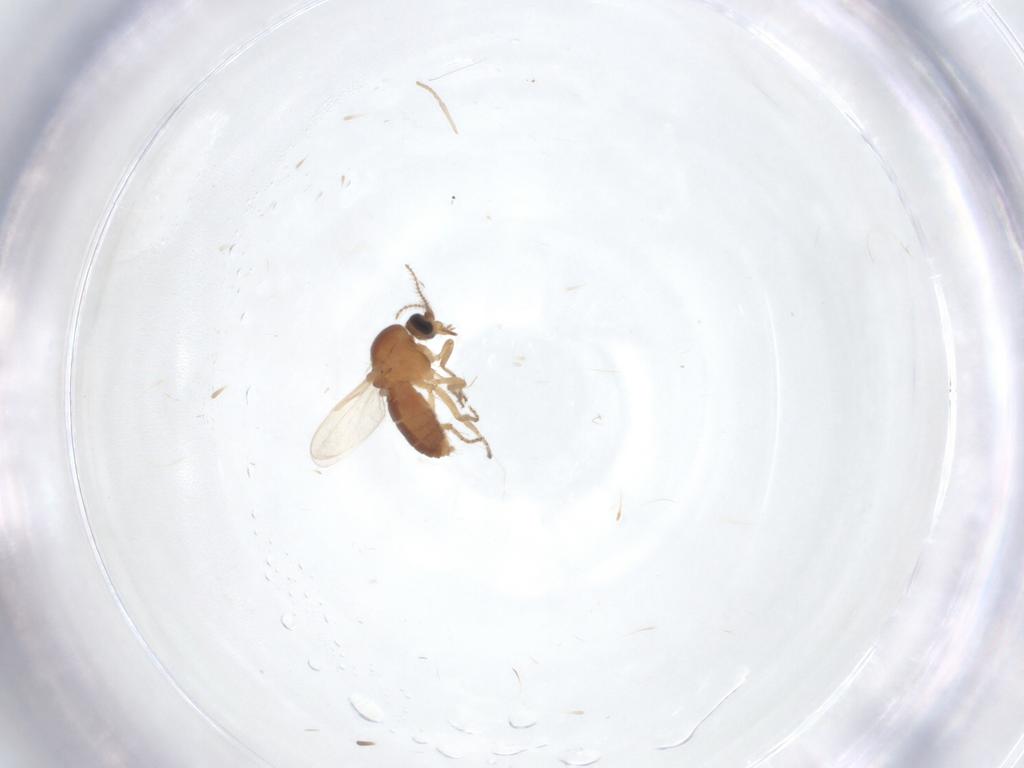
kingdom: Animalia
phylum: Arthropoda
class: Insecta
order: Diptera
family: Ceratopogonidae
